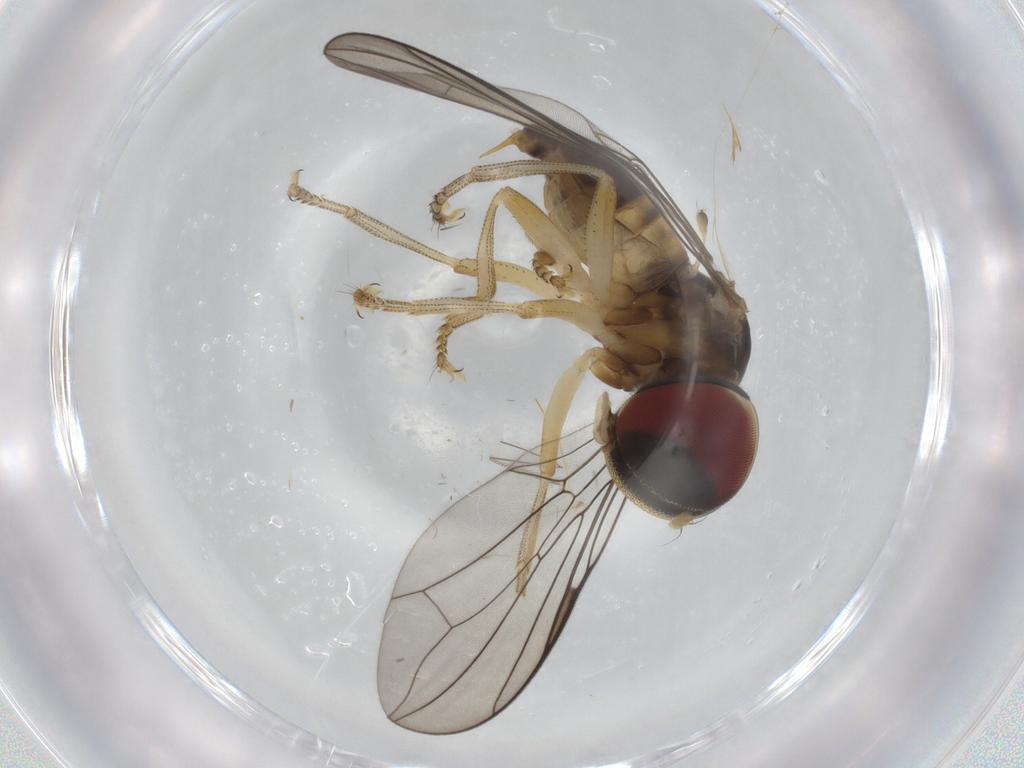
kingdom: Animalia
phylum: Arthropoda
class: Insecta
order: Diptera
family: Pipunculidae
